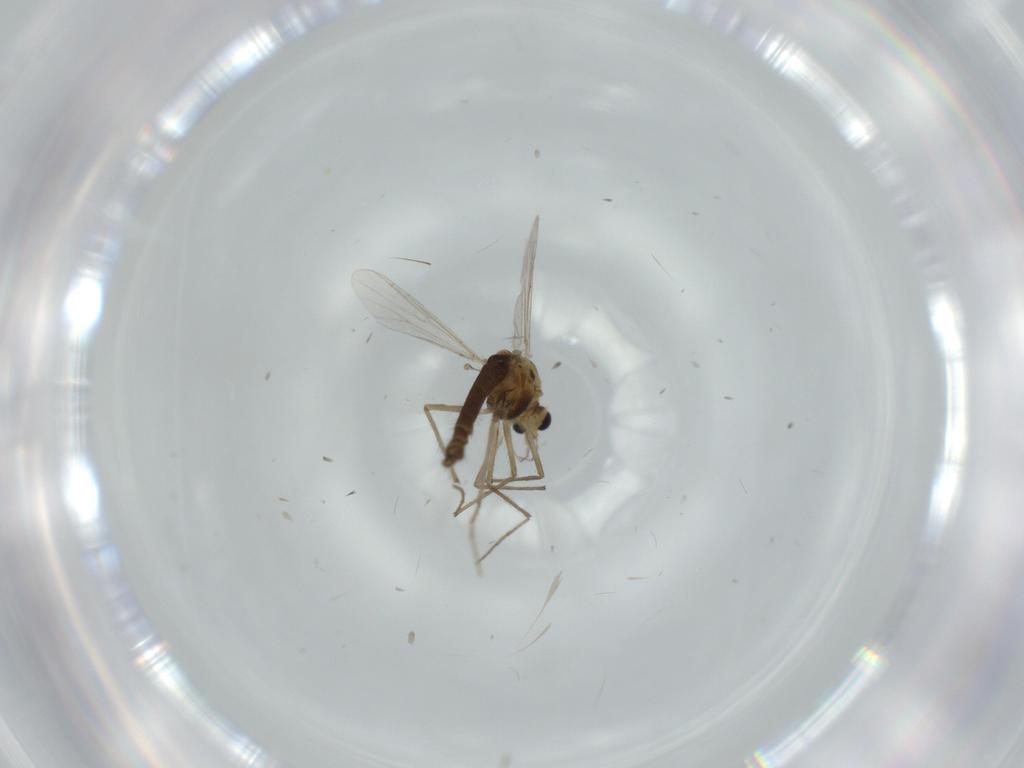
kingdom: Animalia
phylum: Arthropoda
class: Insecta
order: Diptera
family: Chironomidae
